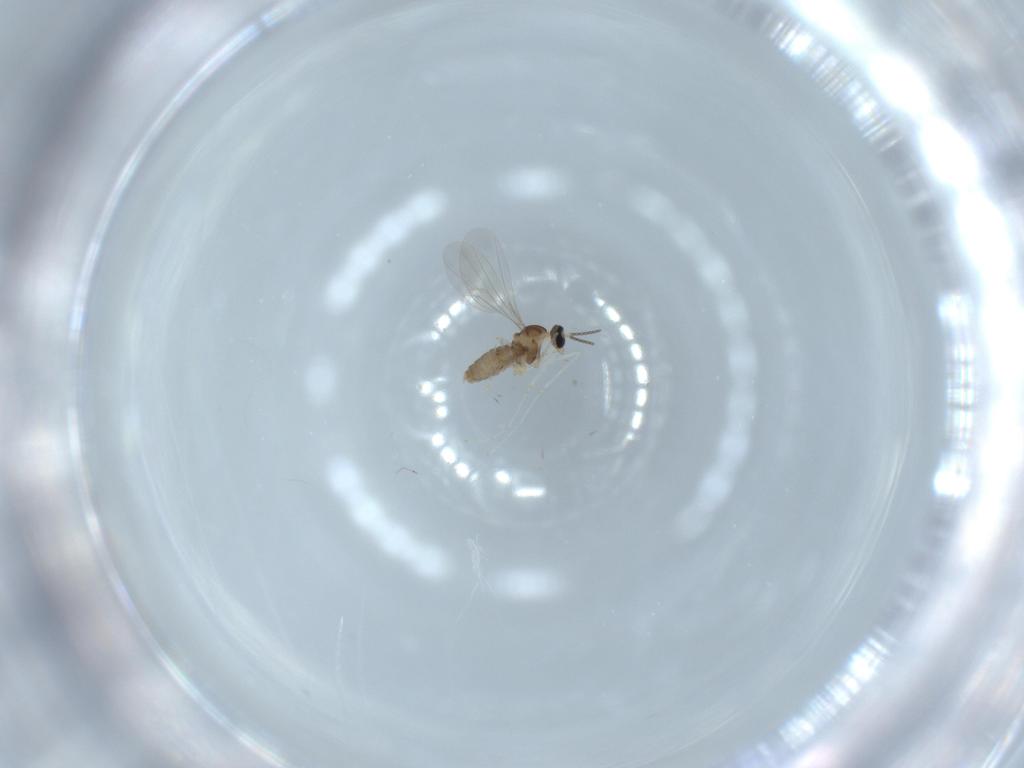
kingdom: Animalia
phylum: Arthropoda
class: Insecta
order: Diptera
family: Cecidomyiidae
